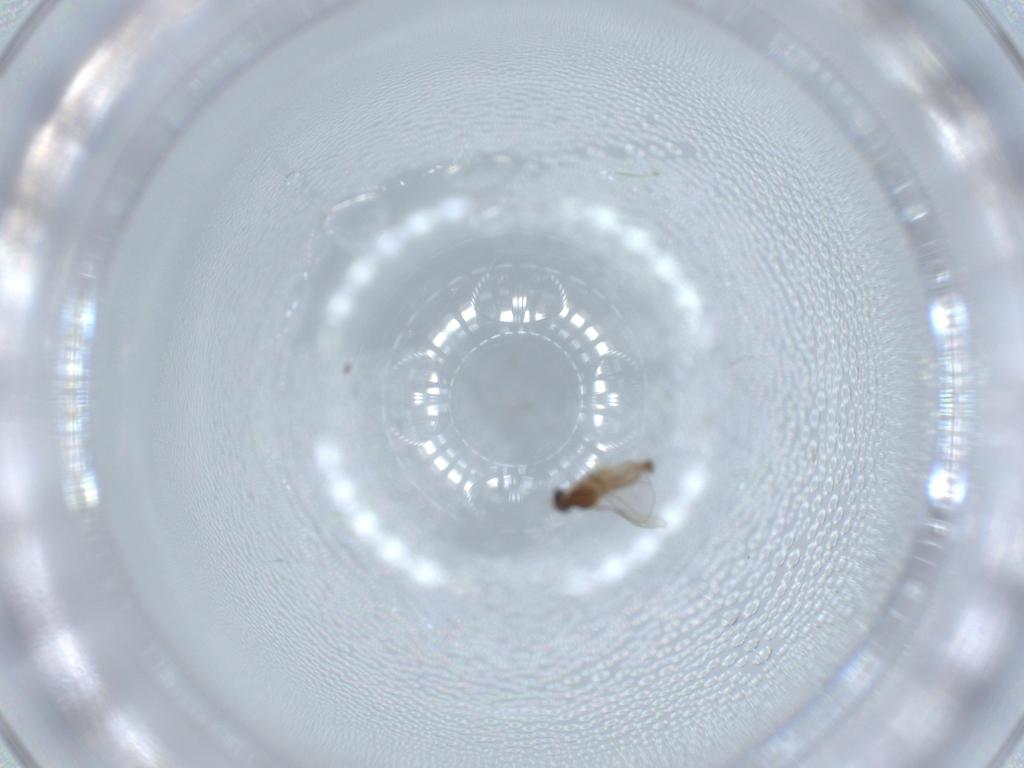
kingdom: Animalia
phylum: Arthropoda
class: Insecta
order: Diptera
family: Cecidomyiidae
